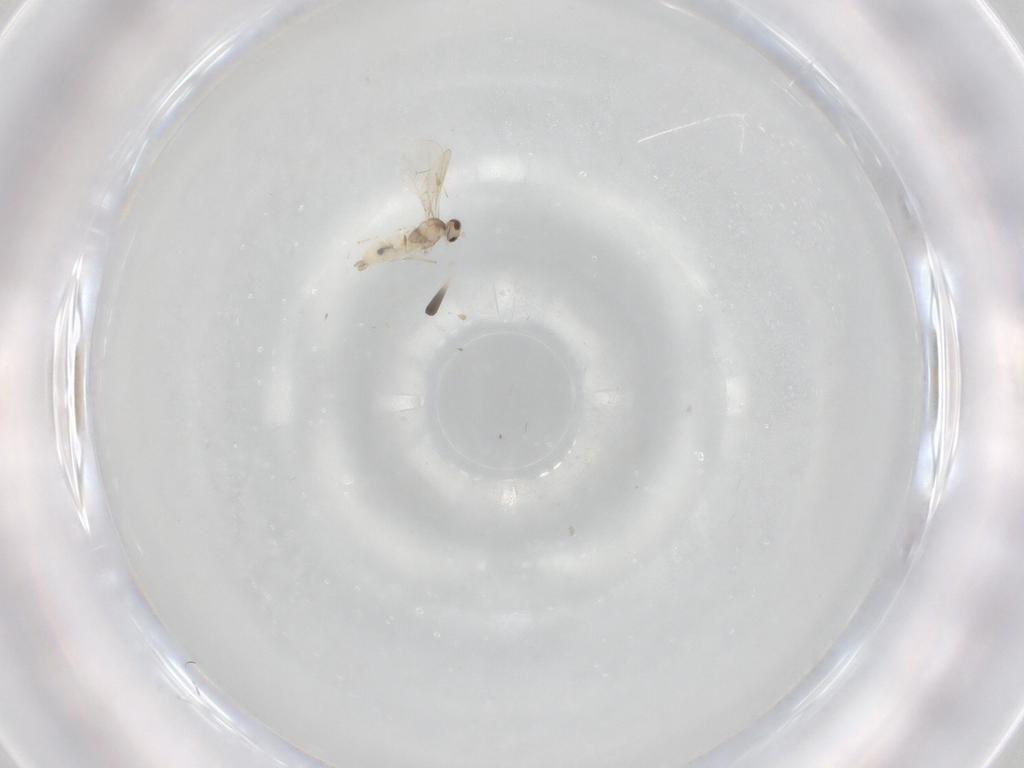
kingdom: Animalia
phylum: Arthropoda
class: Insecta
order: Diptera
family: Cecidomyiidae
